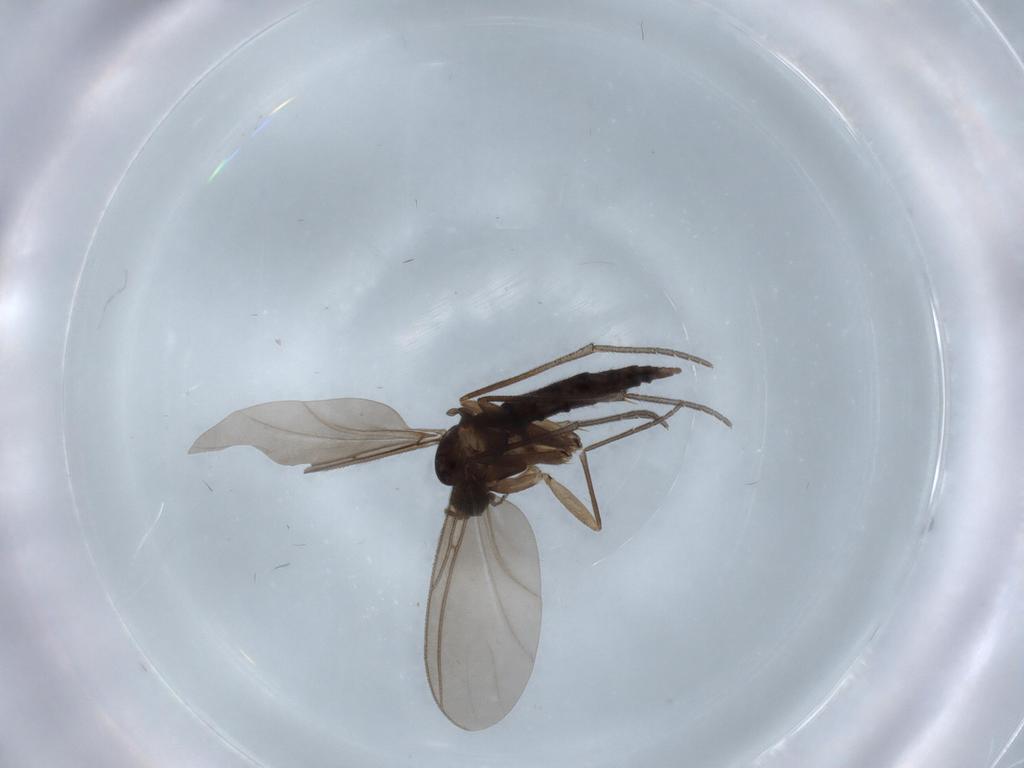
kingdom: Animalia
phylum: Arthropoda
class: Insecta
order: Diptera
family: Sciaridae
